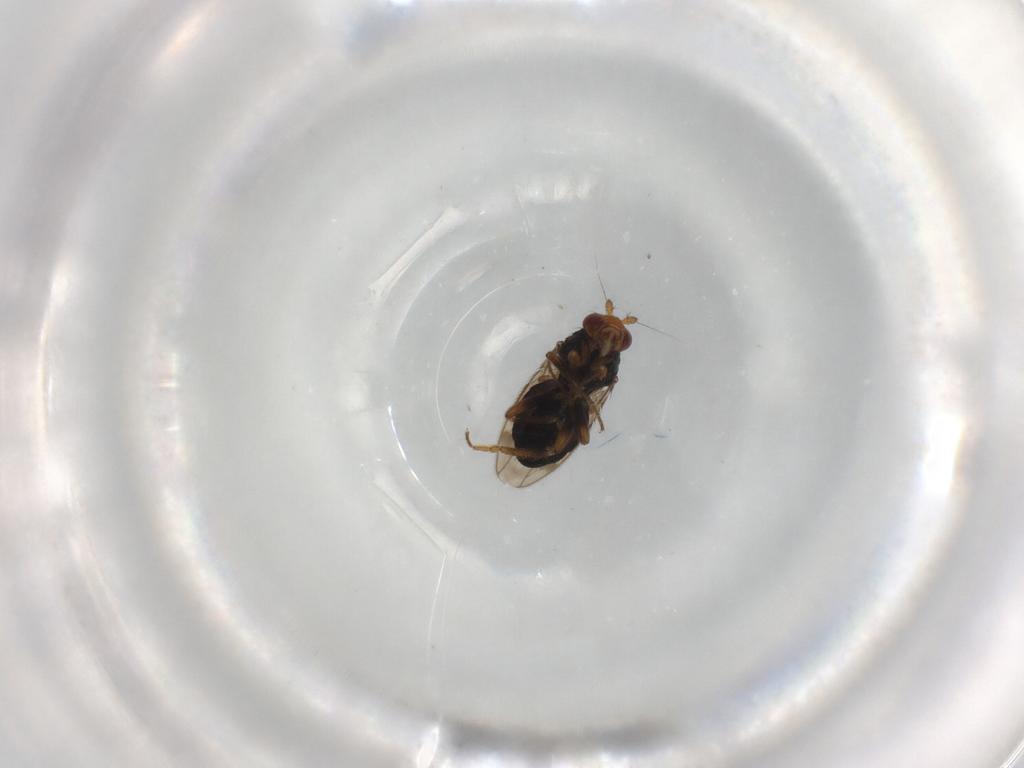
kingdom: Animalia
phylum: Arthropoda
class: Insecta
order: Diptera
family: Sphaeroceridae
